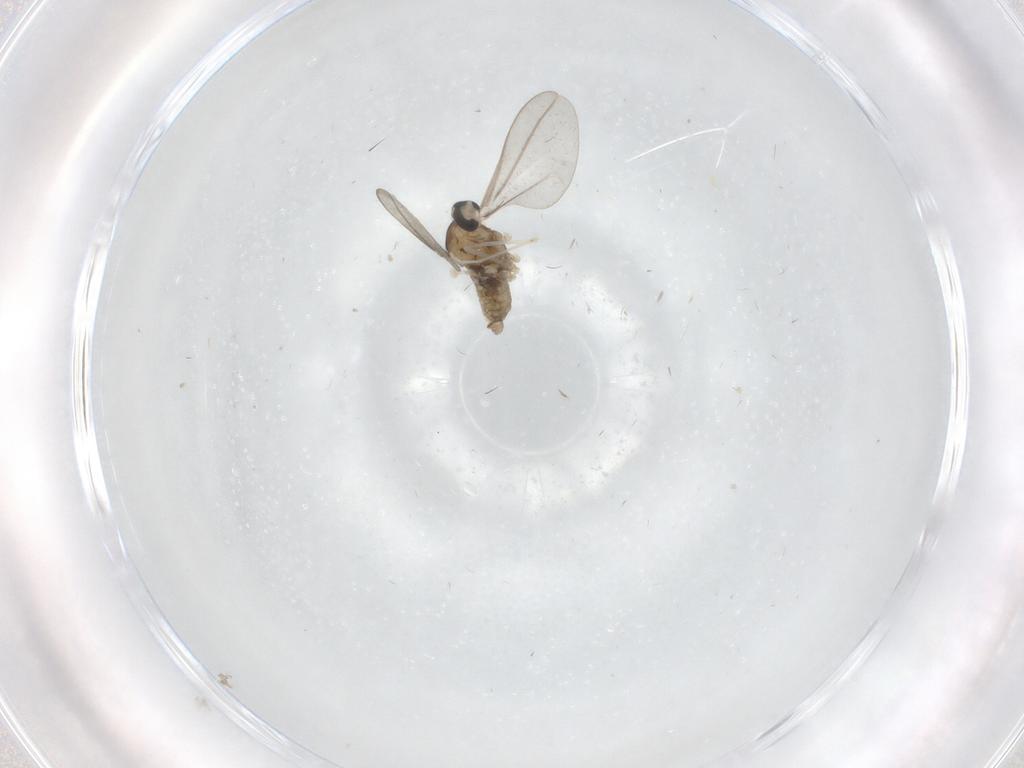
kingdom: Animalia
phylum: Arthropoda
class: Insecta
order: Diptera
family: Cecidomyiidae
